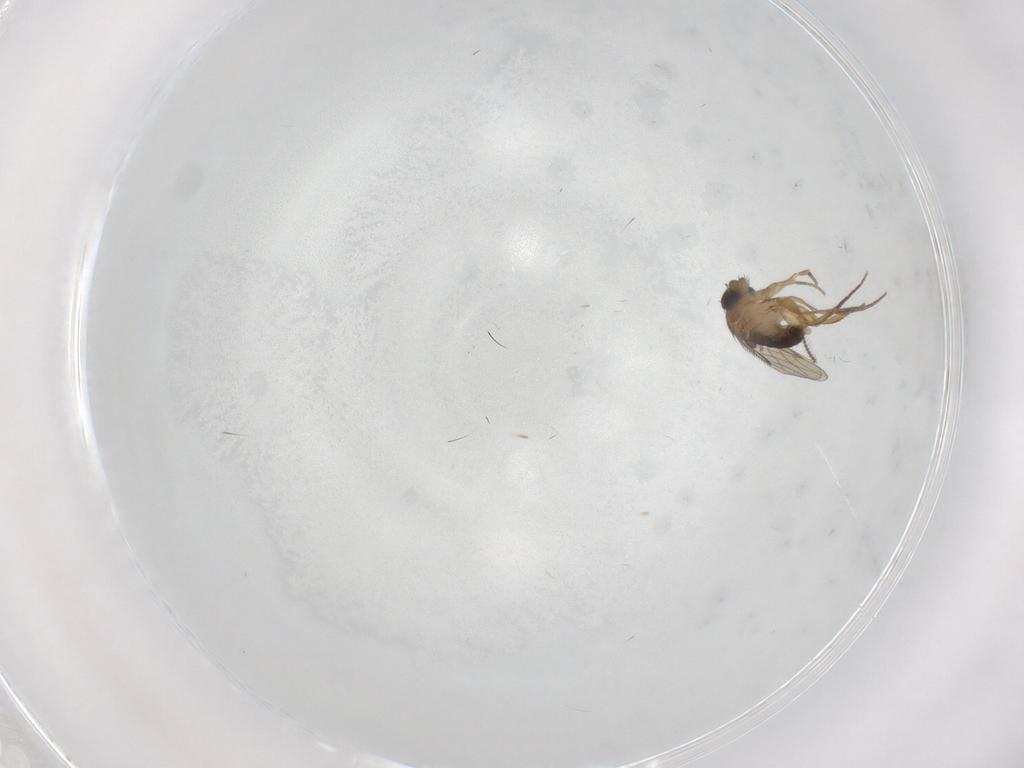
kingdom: Animalia
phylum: Arthropoda
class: Insecta
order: Diptera
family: Phoridae
